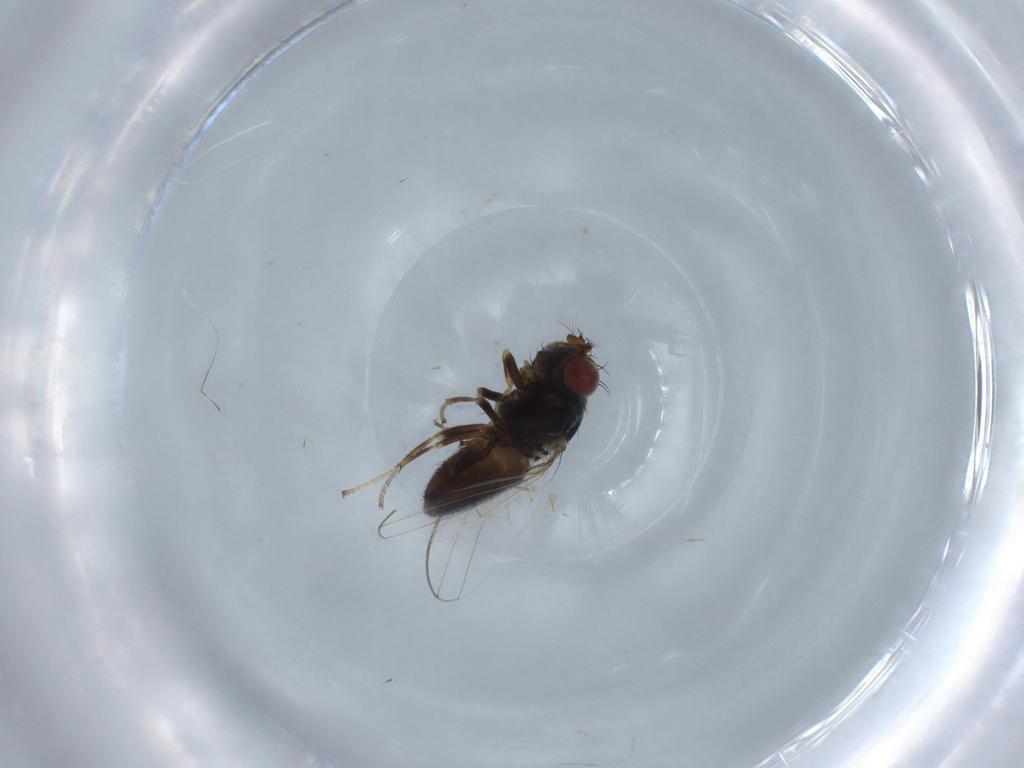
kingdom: Animalia
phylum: Arthropoda
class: Insecta
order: Diptera
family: Ephydridae
